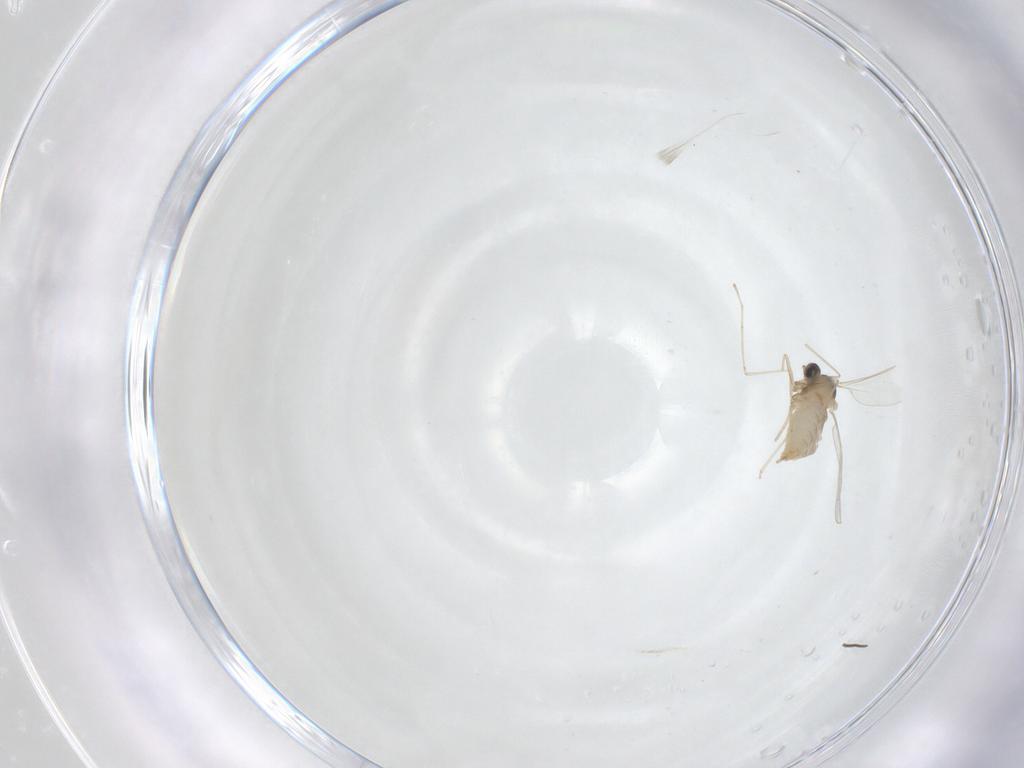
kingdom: Animalia
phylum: Arthropoda
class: Insecta
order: Diptera
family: Cecidomyiidae
